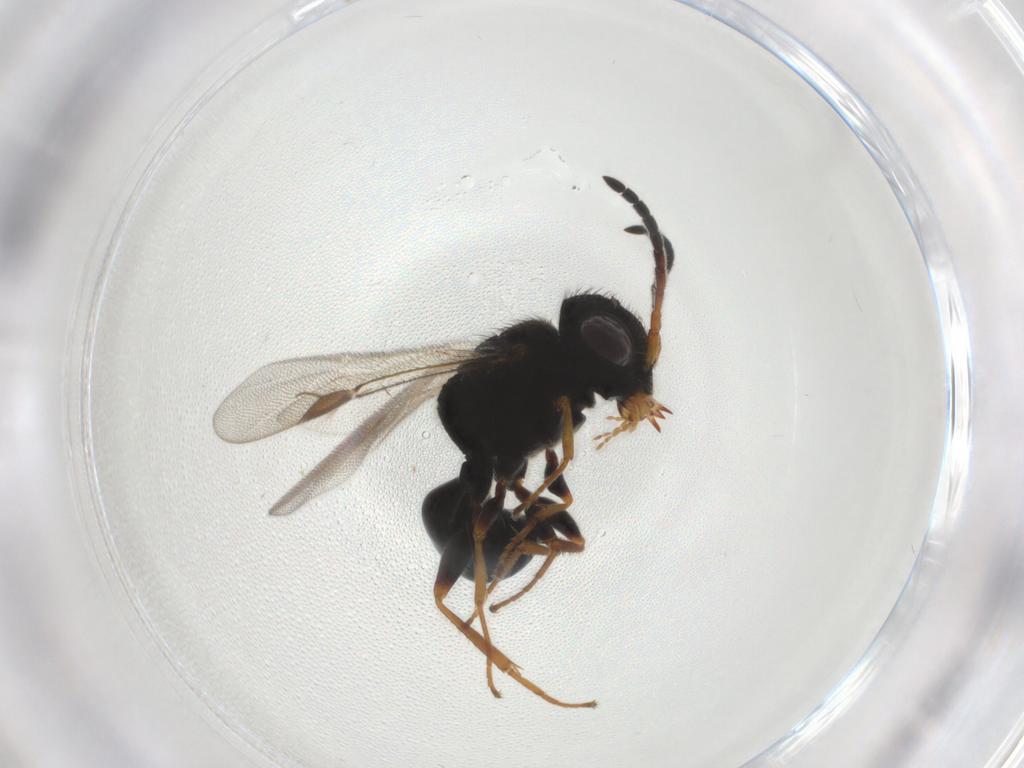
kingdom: Animalia
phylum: Arthropoda
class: Insecta
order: Hymenoptera
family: Dryinidae
